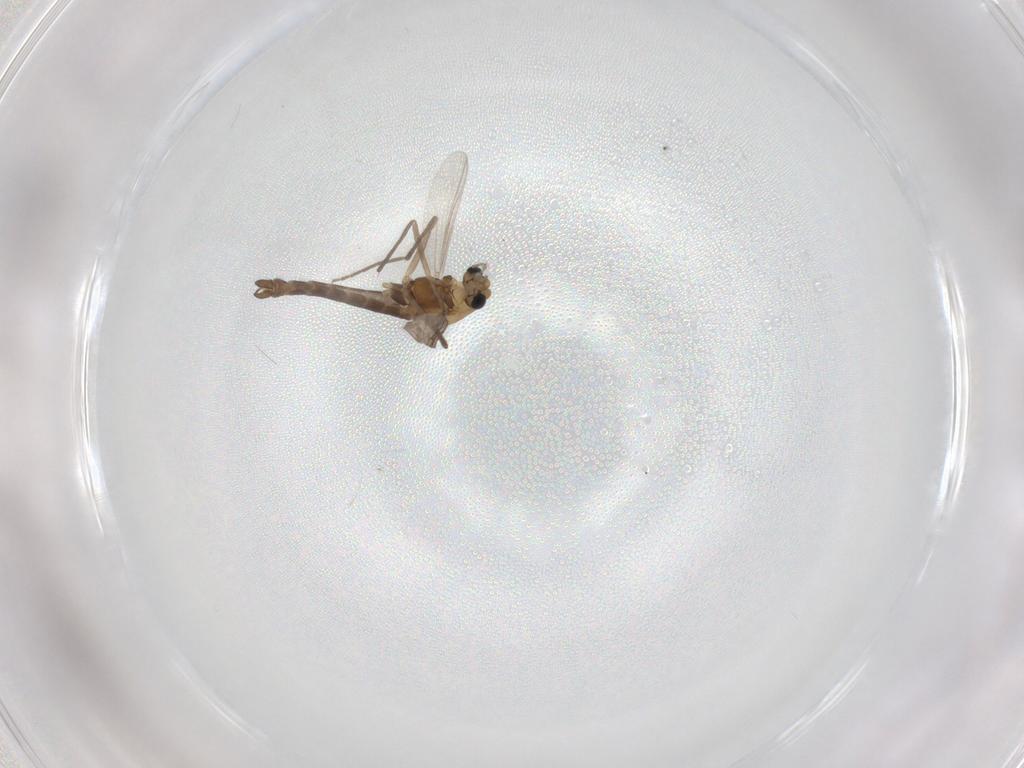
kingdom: Animalia
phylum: Arthropoda
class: Insecta
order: Diptera
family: Chironomidae
